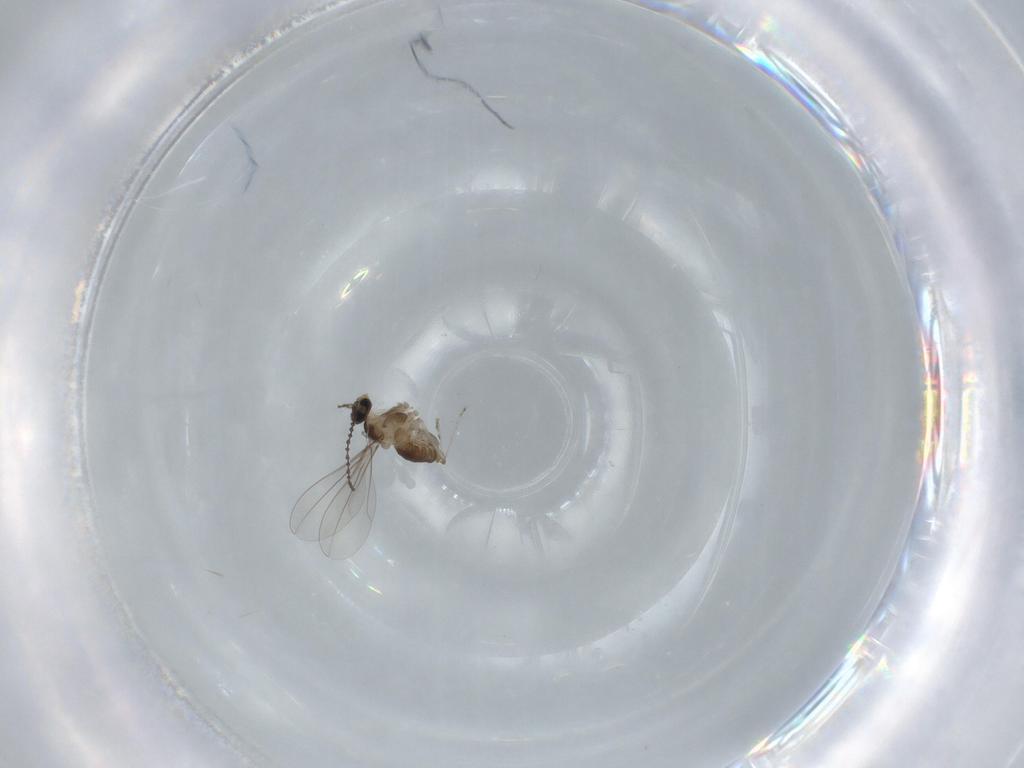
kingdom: Animalia
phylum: Arthropoda
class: Insecta
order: Diptera
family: Cecidomyiidae
